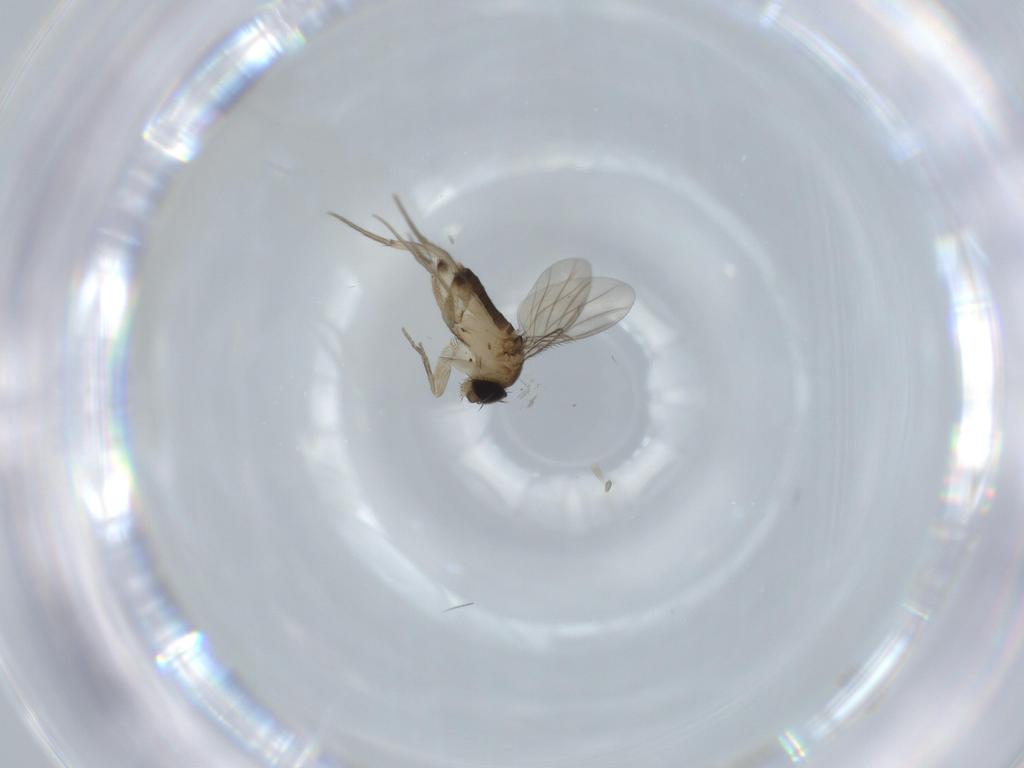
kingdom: Animalia
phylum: Arthropoda
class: Insecta
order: Diptera
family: Phoridae
